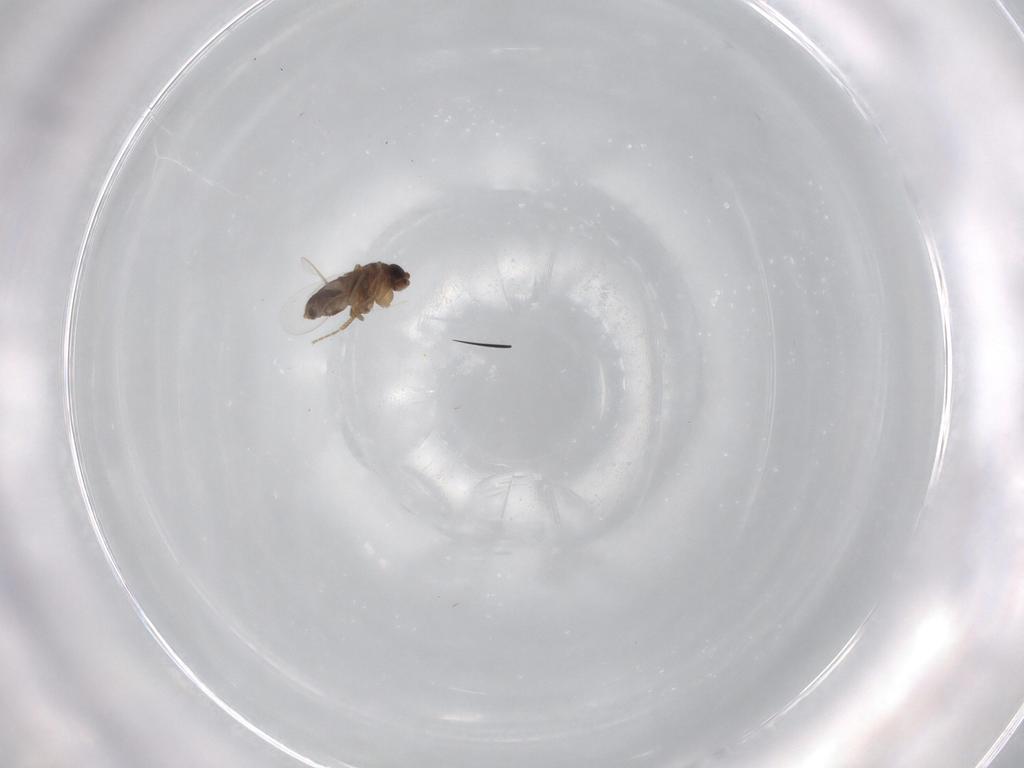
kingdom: Animalia
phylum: Arthropoda
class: Insecta
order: Diptera
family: Phoridae
